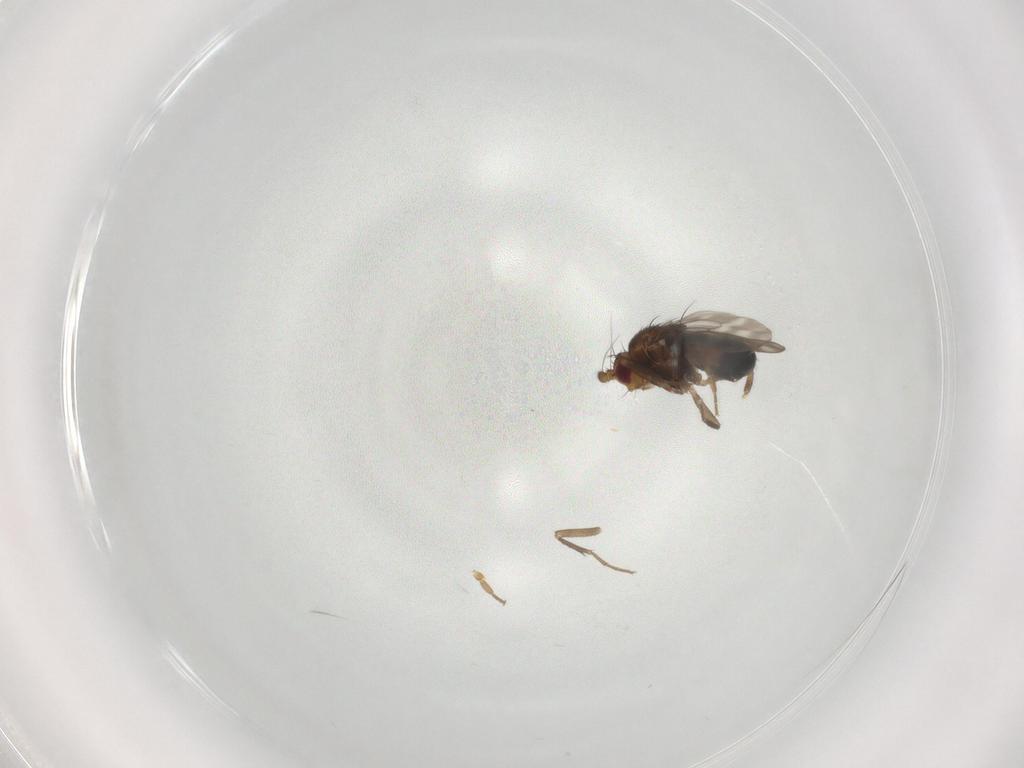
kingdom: Animalia
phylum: Arthropoda
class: Insecta
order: Diptera
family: Sphaeroceridae
